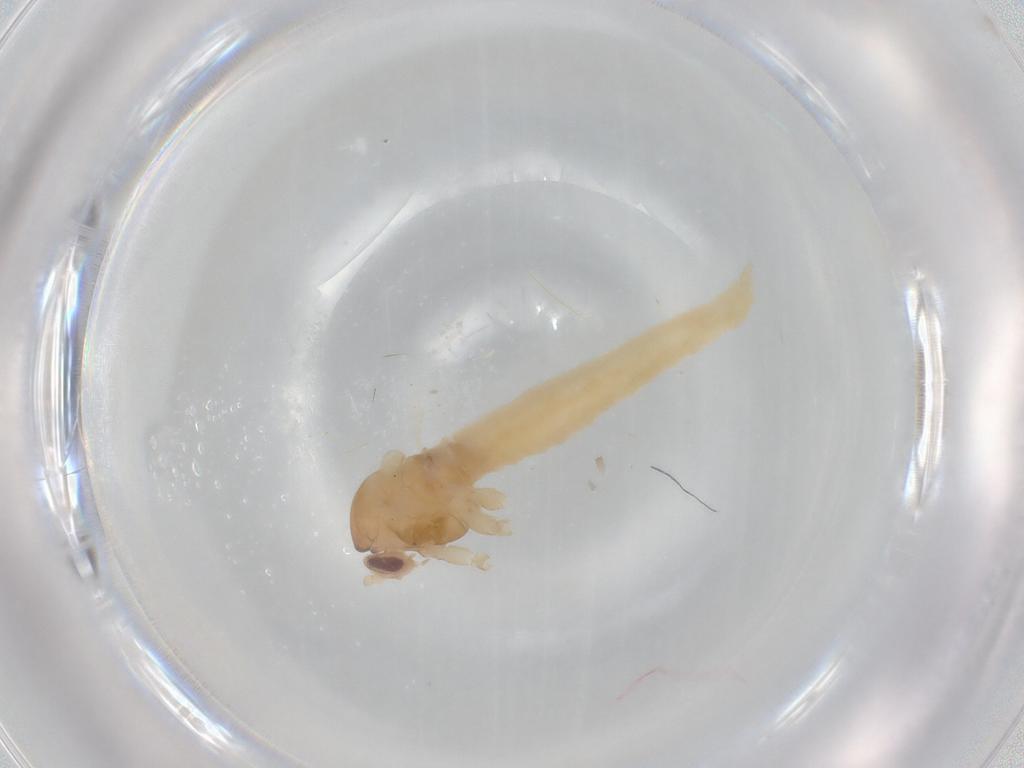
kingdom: Animalia
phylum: Arthropoda
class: Insecta
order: Diptera
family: Cecidomyiidae
